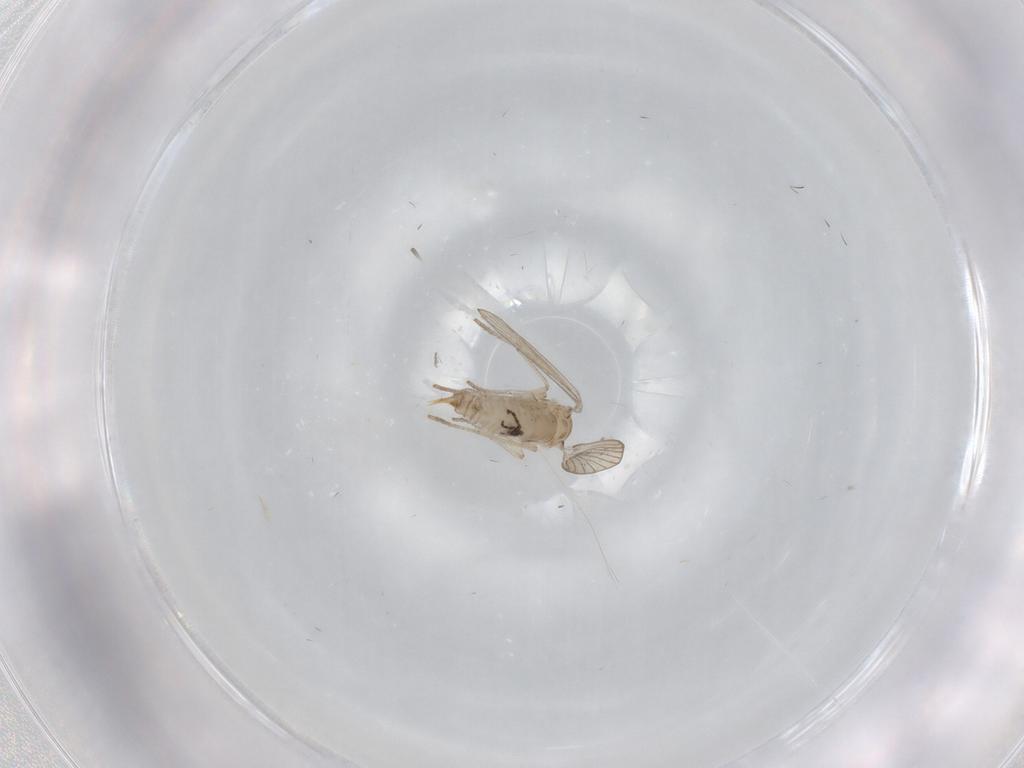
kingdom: Animalia
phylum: Arthropoda
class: Insecta
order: Diptera
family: Psychodidae
